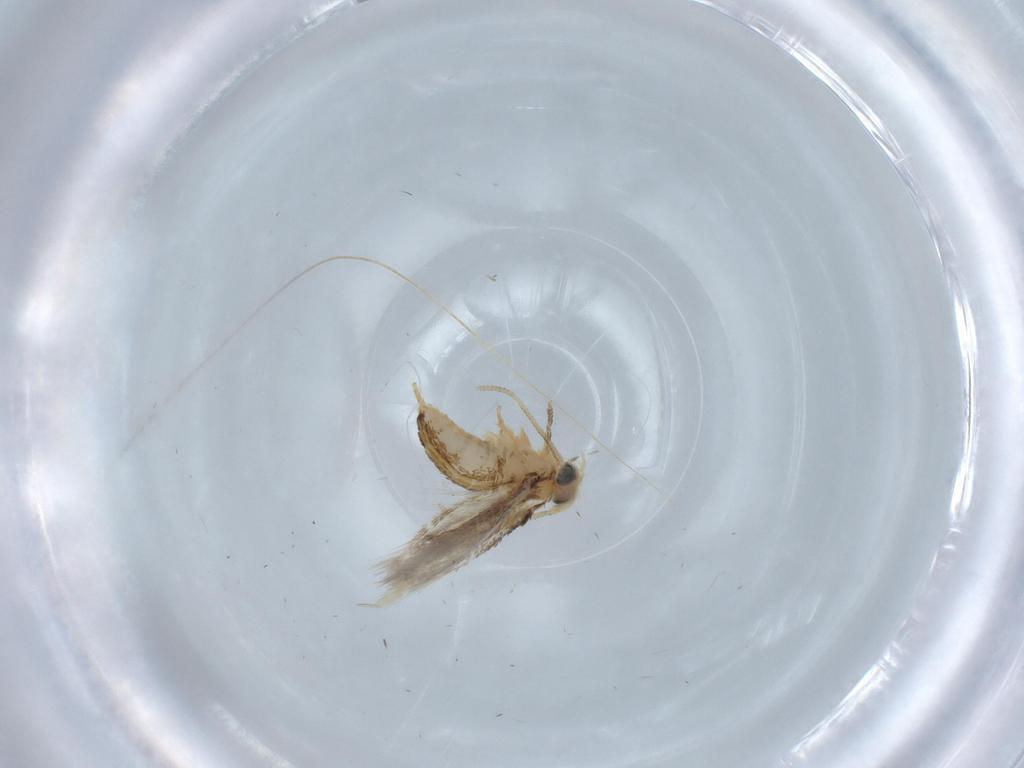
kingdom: Animalia
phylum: Arthropoda
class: Insecta
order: Lepidoptera
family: Nepticulidae
